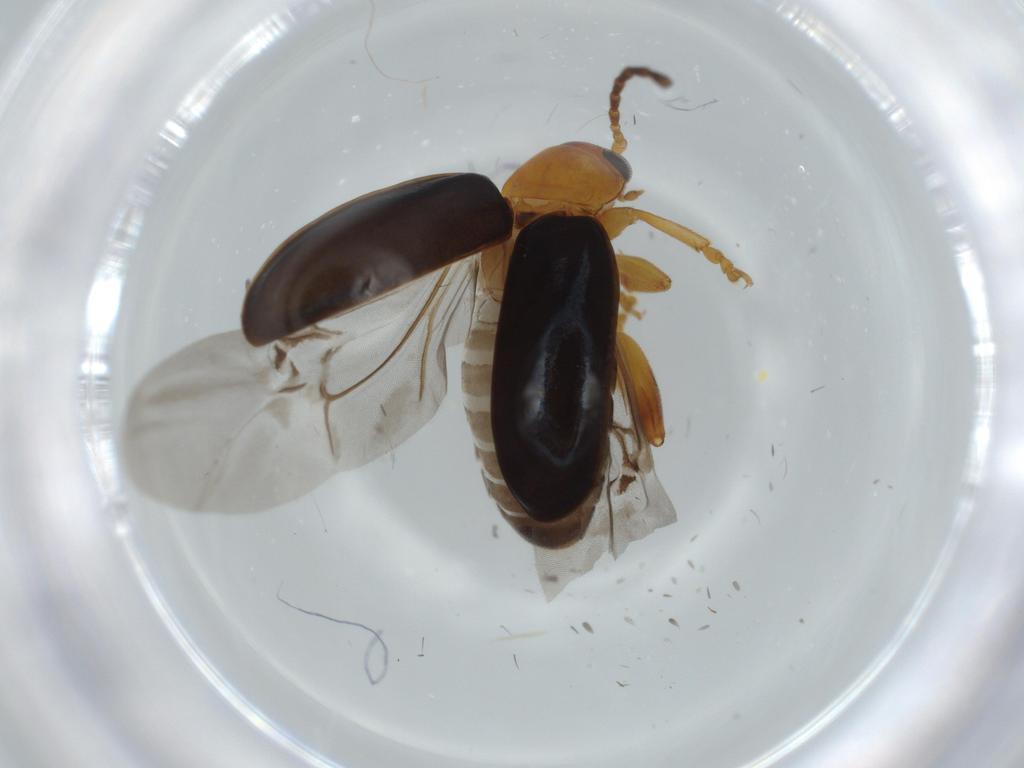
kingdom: Animalia
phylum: Arthropoda
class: Insecta
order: Coleoptera
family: Chrysomelidae
